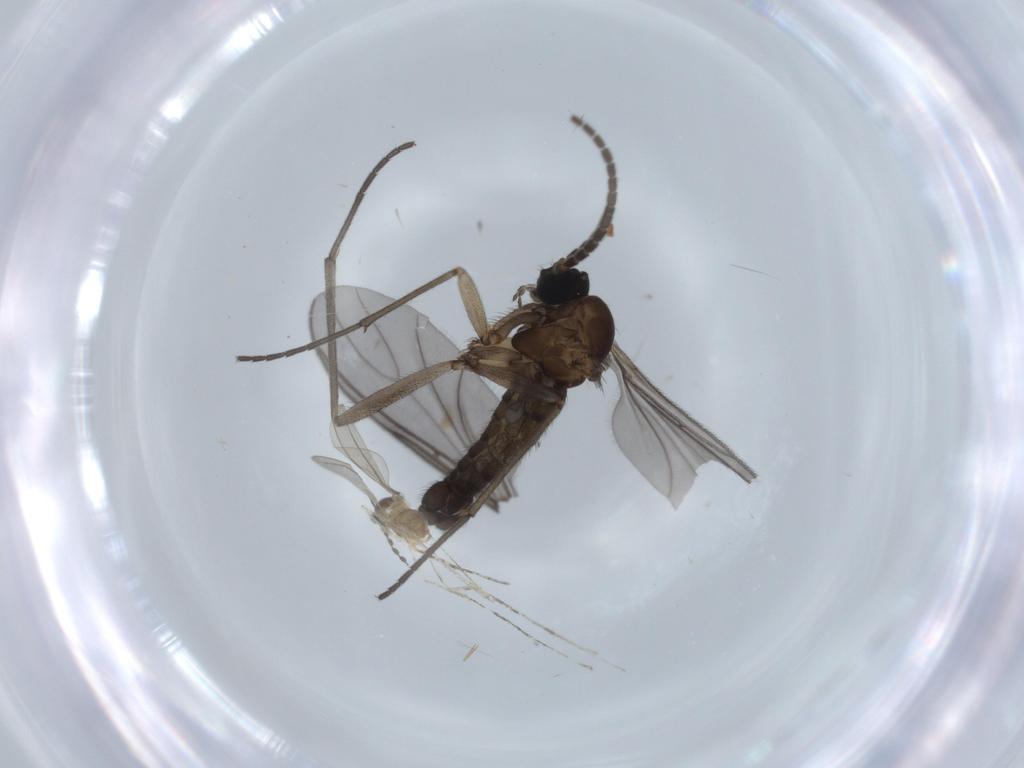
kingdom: Animalia
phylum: Arthropoda
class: Insecta
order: Diptera
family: Sciaridae
